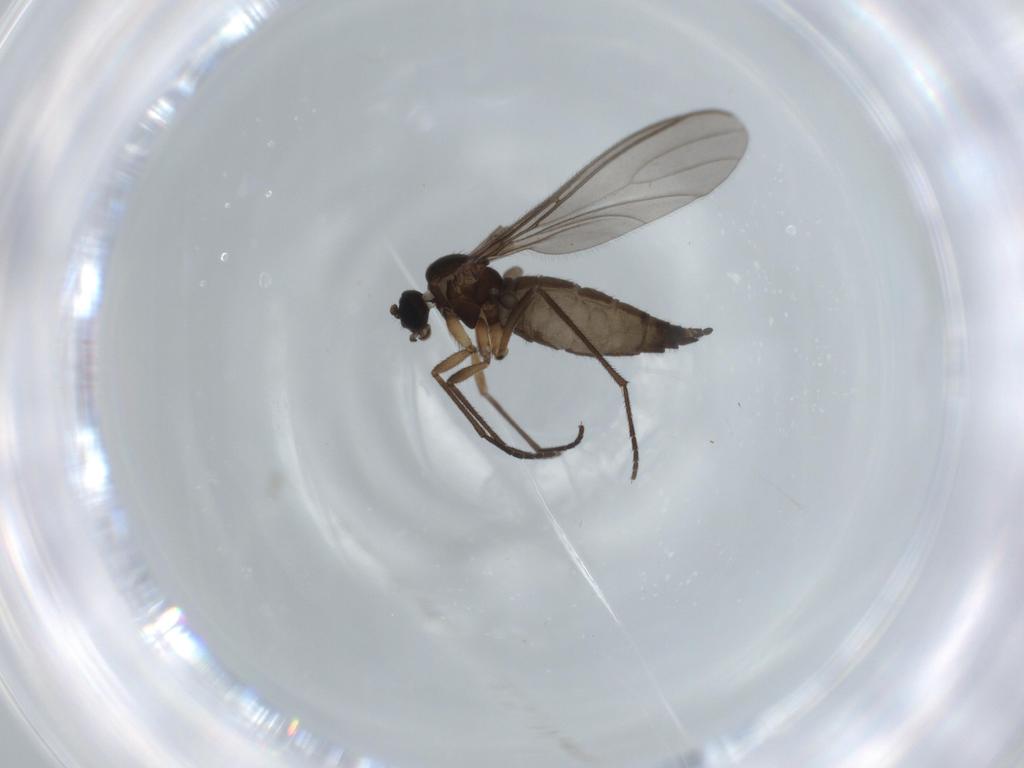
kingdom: Animalia
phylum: Arthropoda
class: Insecta
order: Diptera
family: Sciaridae
